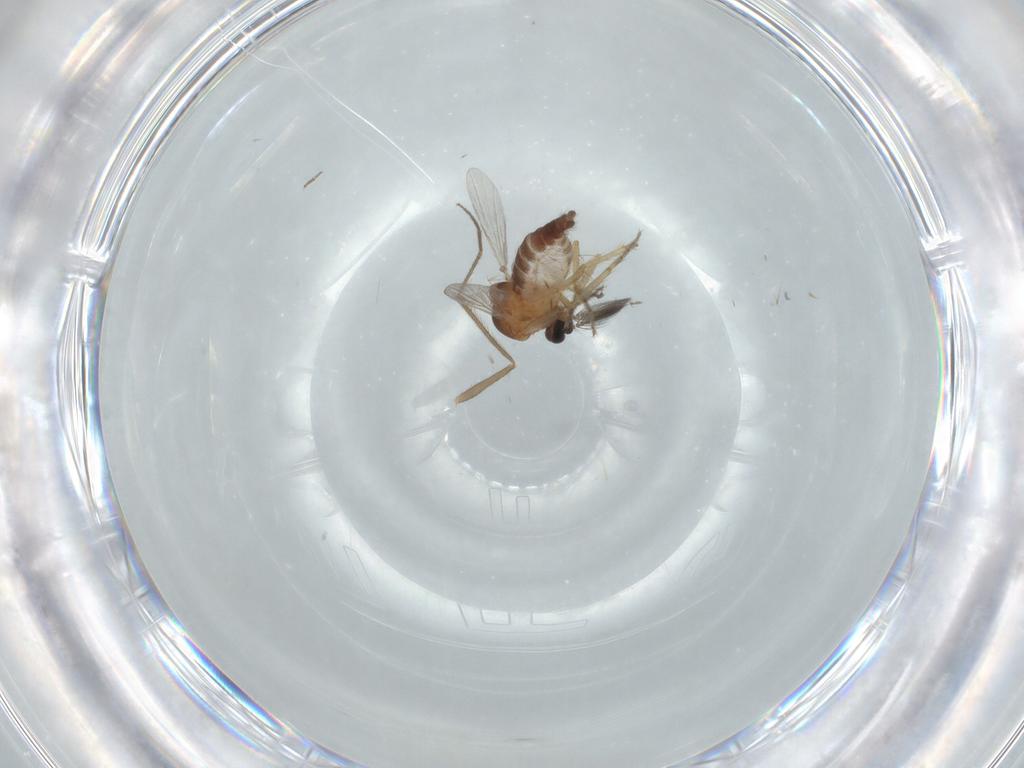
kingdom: Animalia
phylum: Arthropoda
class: Insecta
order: Diptera
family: Ceratopogonidae
